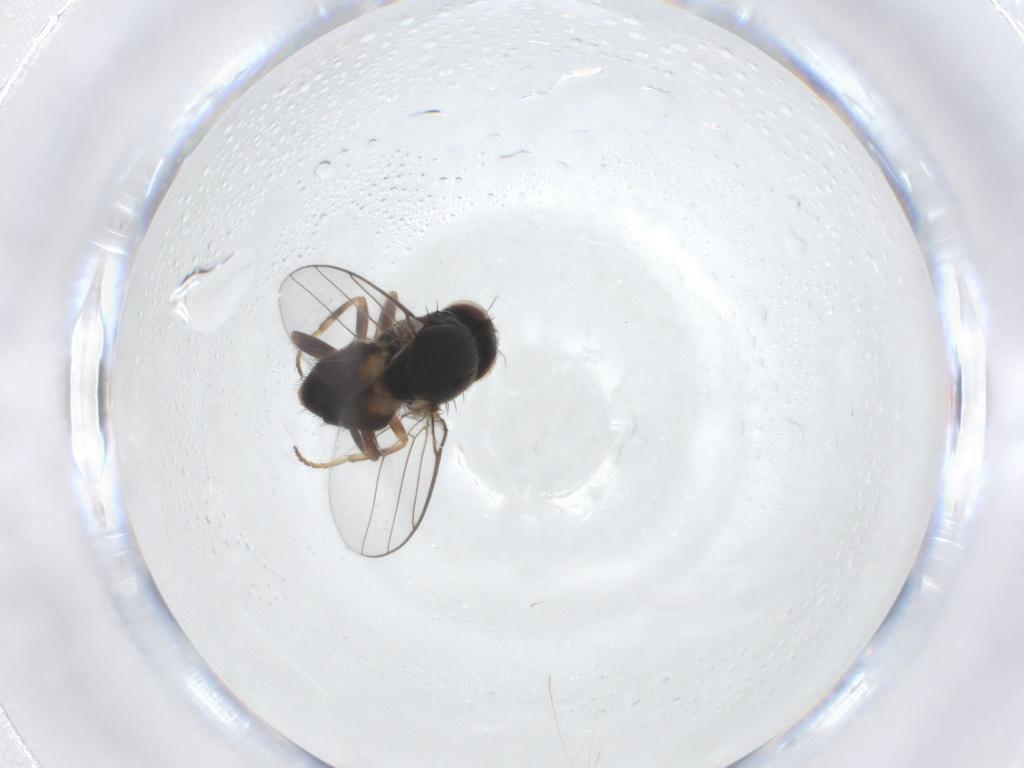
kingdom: Animalia
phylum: Arthropoda
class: Insecta
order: Diptera
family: Chloropidae
